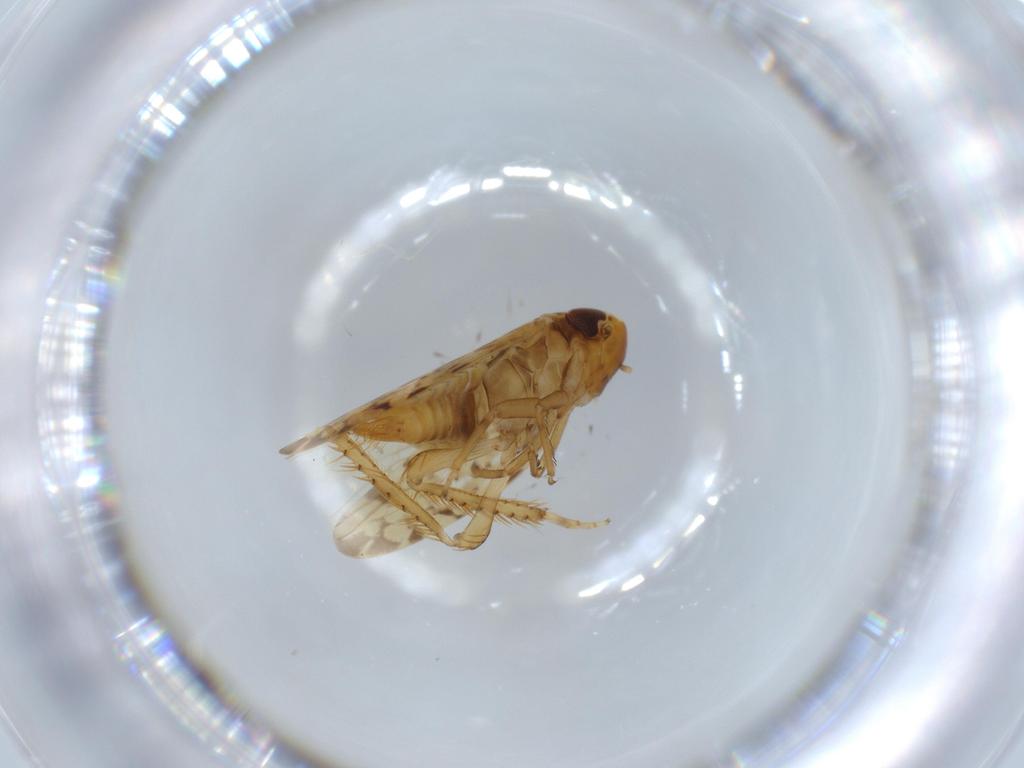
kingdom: Animalia
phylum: Arthropoda
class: Insecta
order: Hemiptera
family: Cicadellidae
